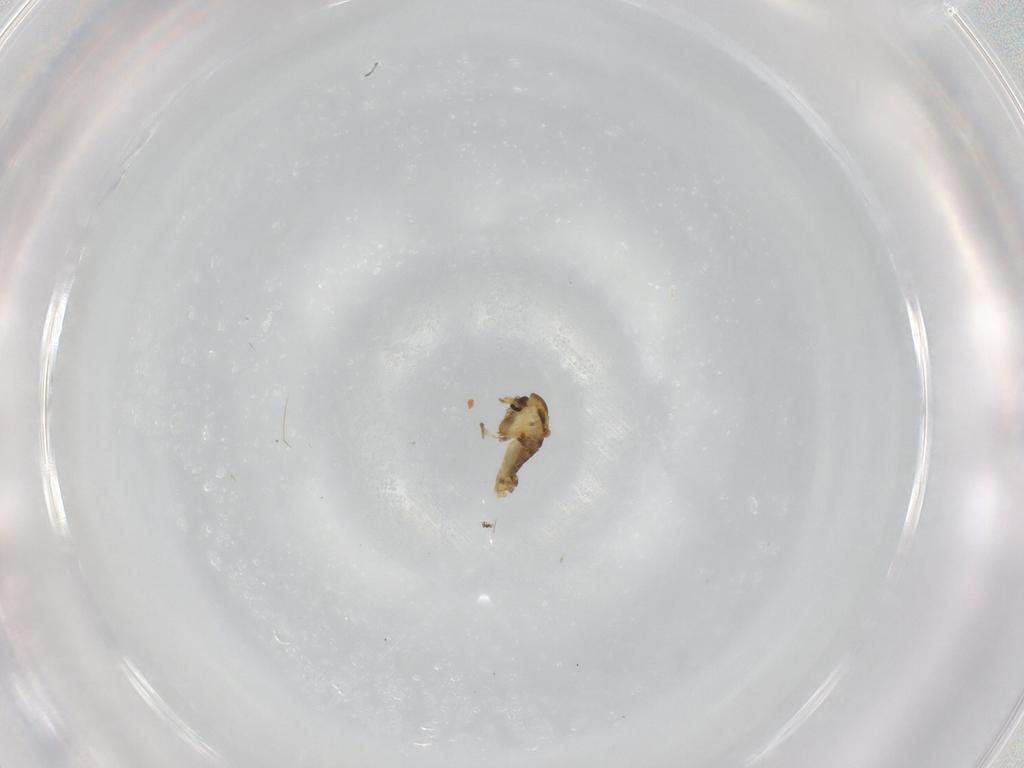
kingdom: Animalia
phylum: Arthropoda
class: Insecta
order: Diptera
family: Chironomidae
